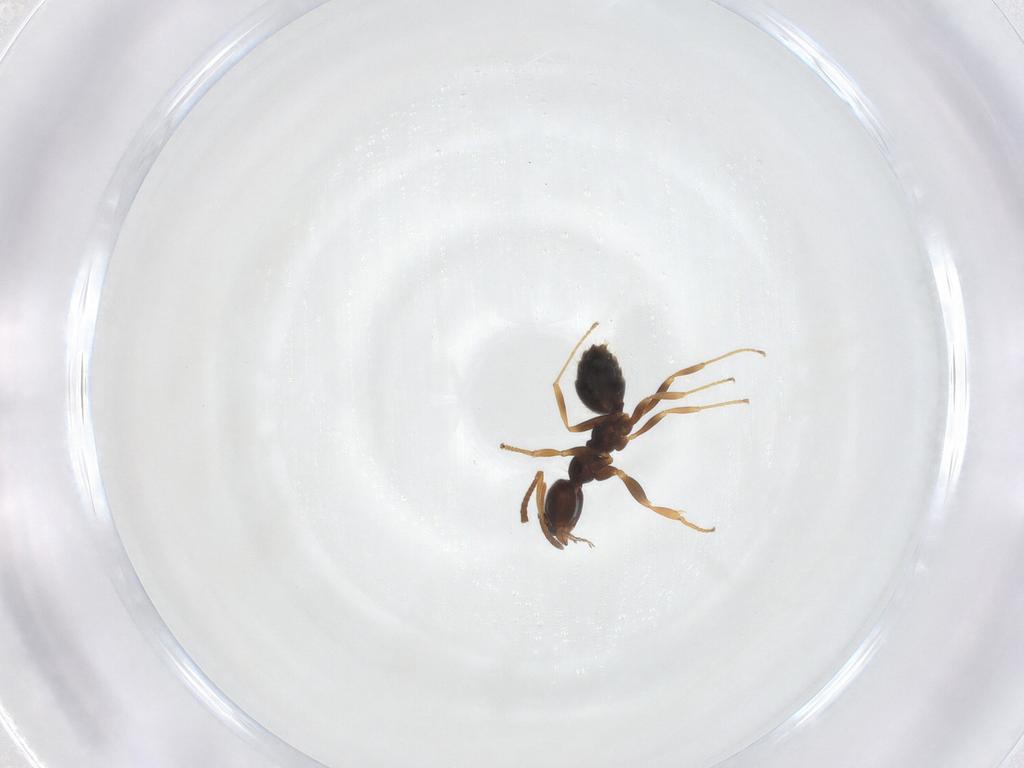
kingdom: Animalia
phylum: Arthropoda
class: Insecta
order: Hymenoptera
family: Formicidae
